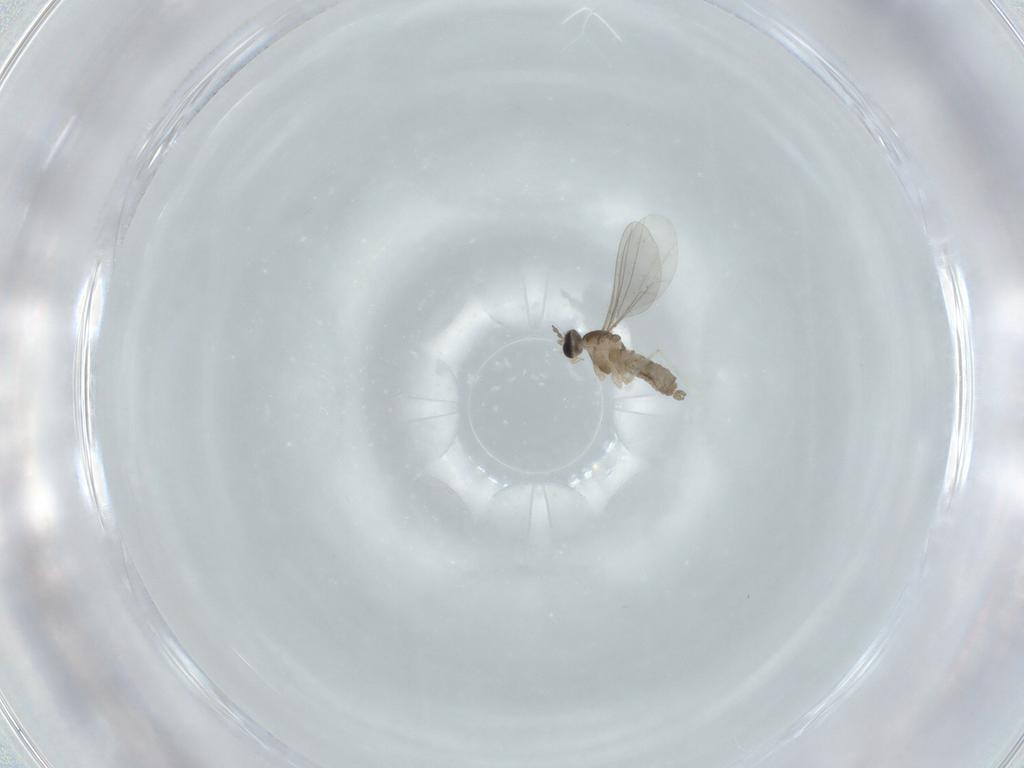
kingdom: Animalia
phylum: Arthropoda
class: Insecta
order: Diptera
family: Cecidomyiidae
